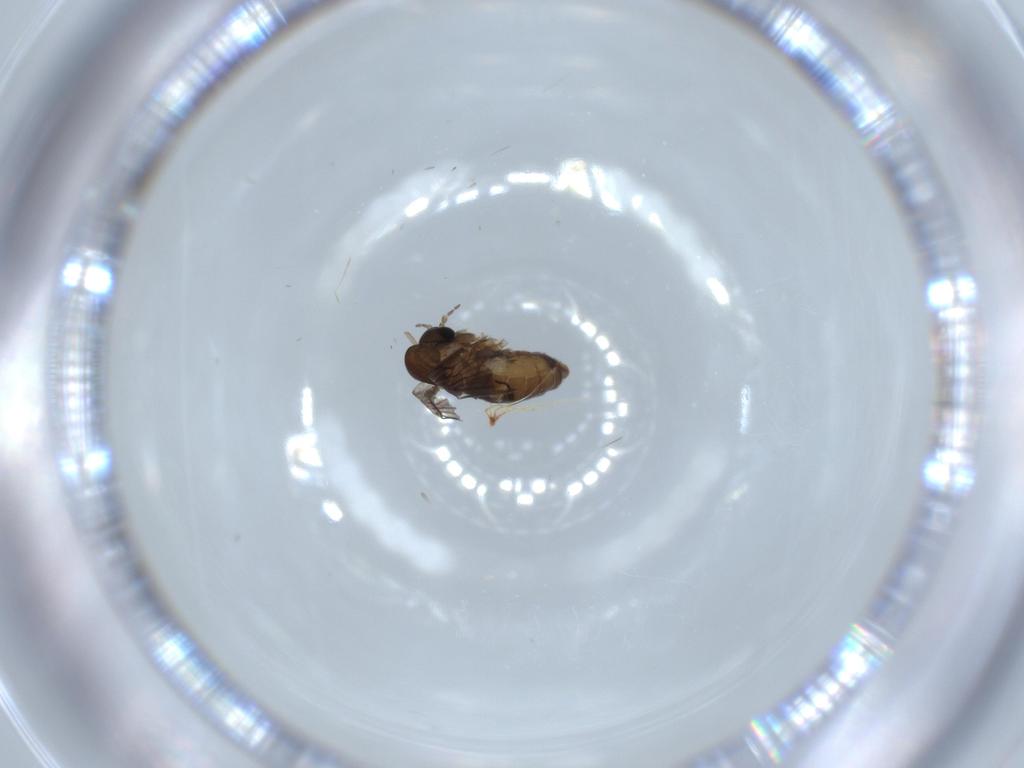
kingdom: Animalia
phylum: Arthropoda
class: Insecta
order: Diptera
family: Psychodidae
